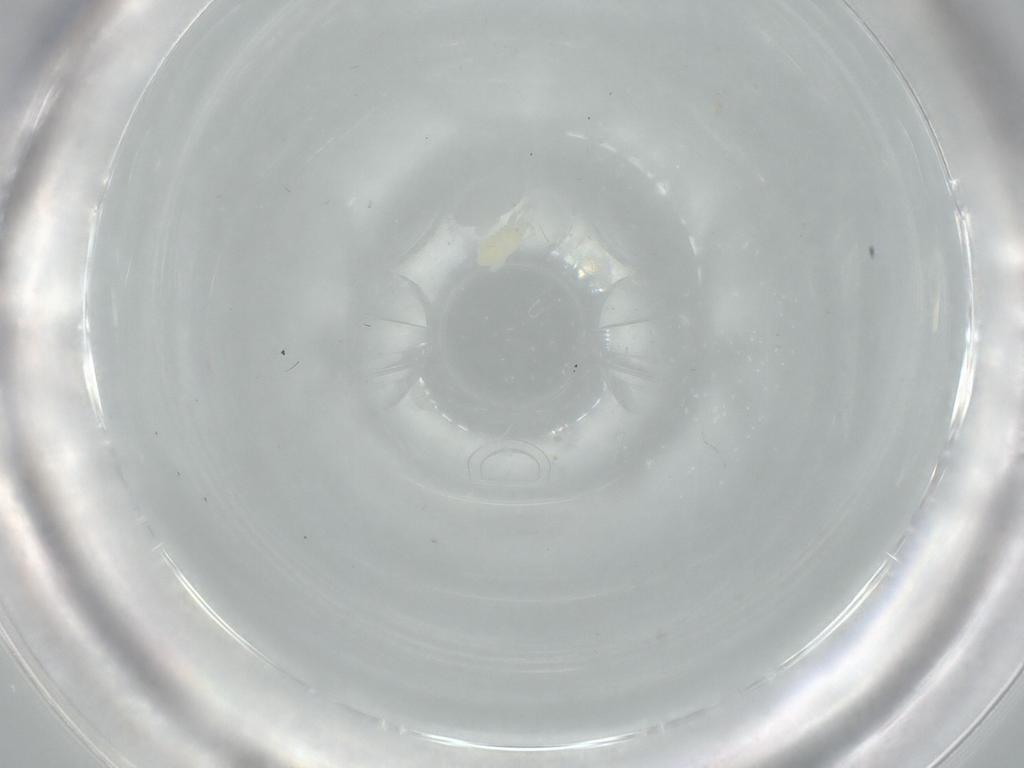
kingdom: Animalia
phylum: Arthropoda
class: Arachnida
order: Trombidiformes
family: Eupodidae
